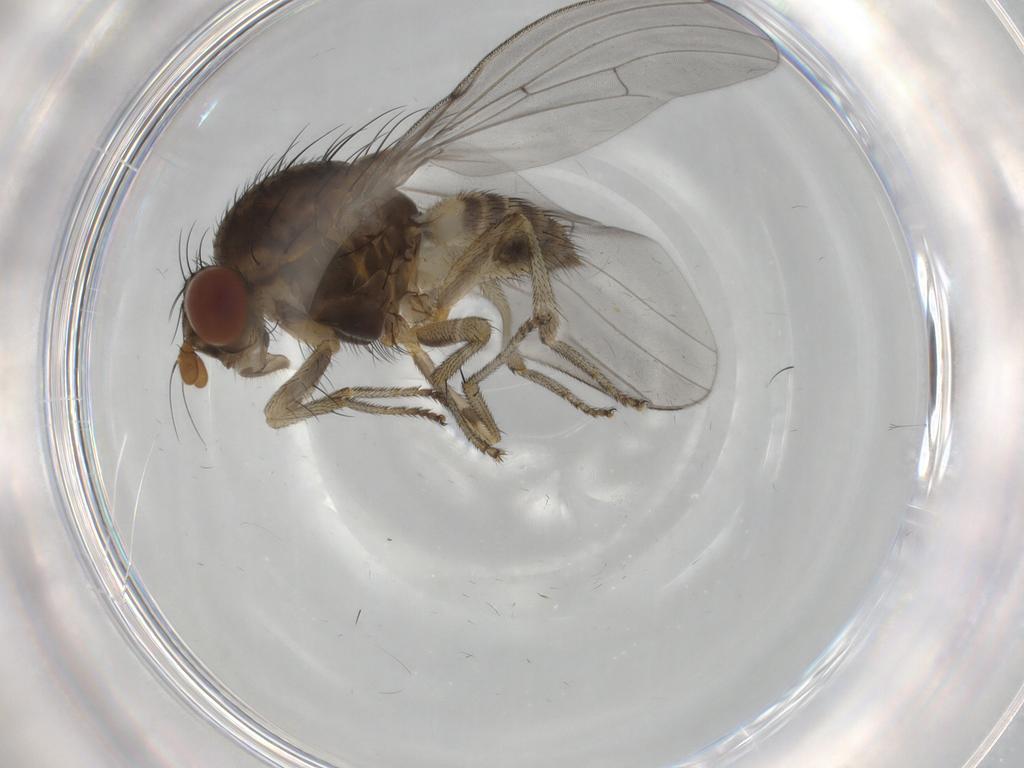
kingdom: Animalia
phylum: Arthropoda
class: Insecta
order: Diptera
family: Lauxaniidae
